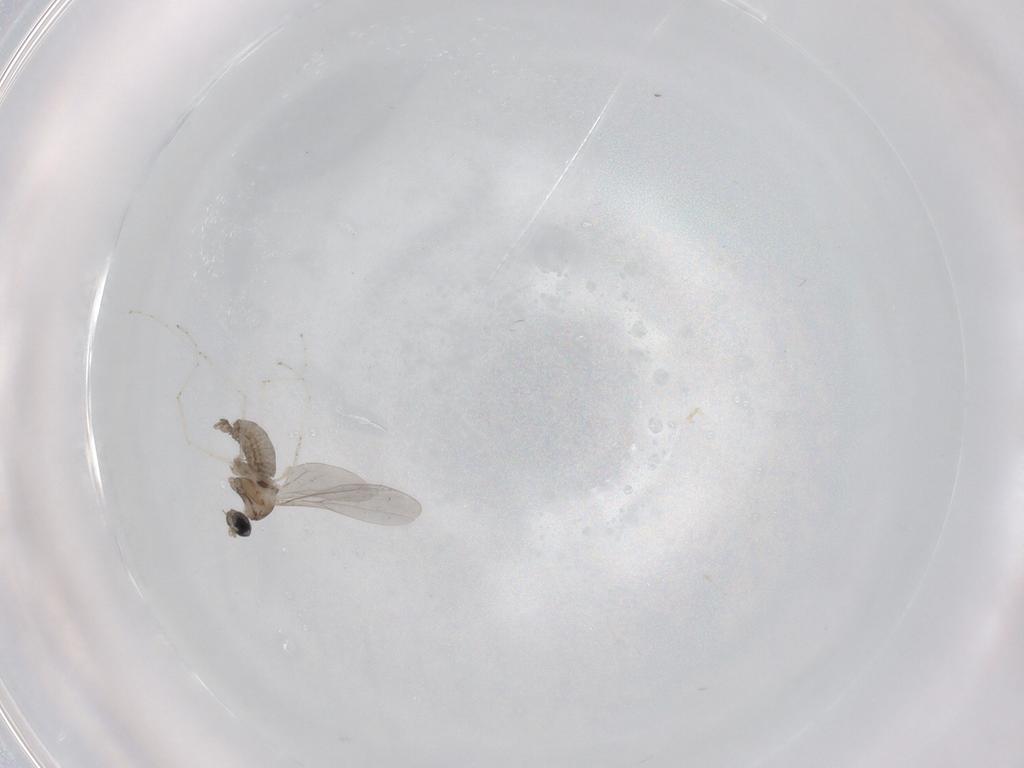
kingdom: Animalia
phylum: Arthropoda
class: Insecta
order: Diptera
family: Cecidomyiidae
